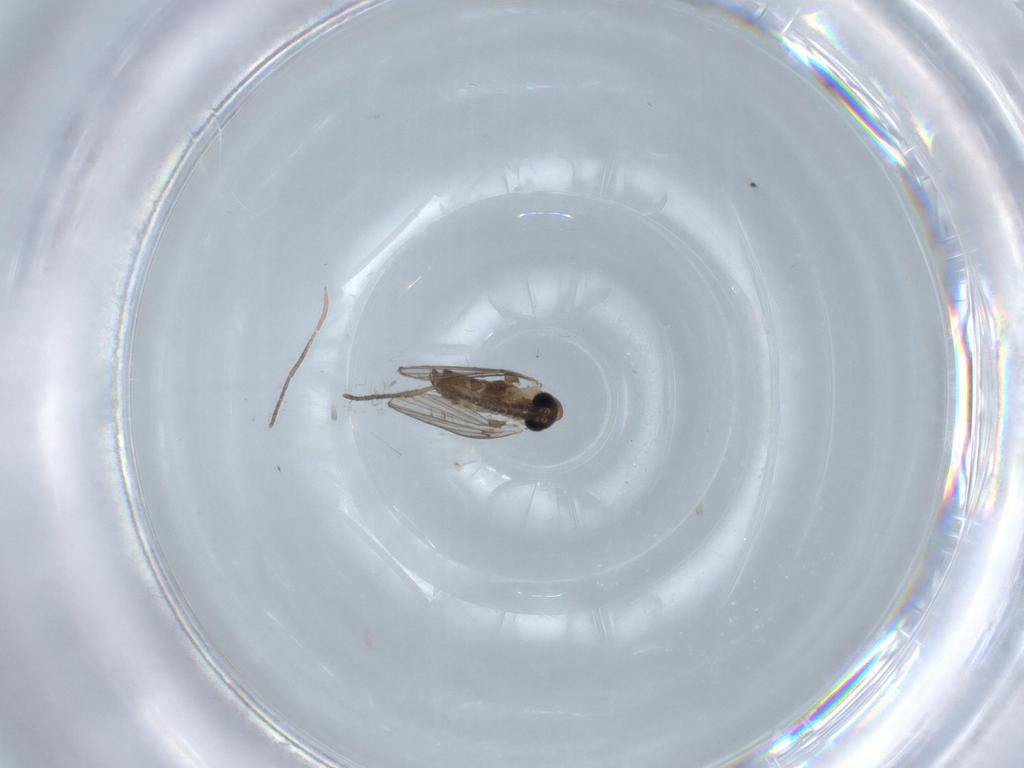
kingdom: Animalia
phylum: Arthropoda
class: Insecta
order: Diptera
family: Psychodidae
